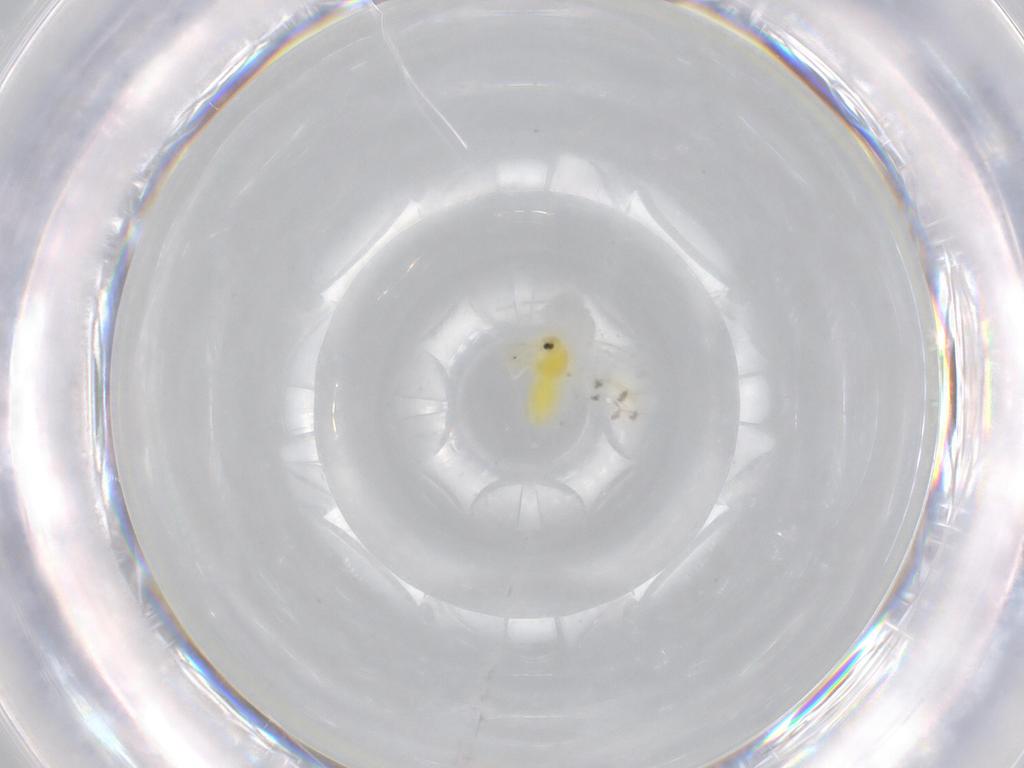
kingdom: Animalia
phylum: Arthropoda
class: Insecta
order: Hemiptera
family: Aleyrodidae
